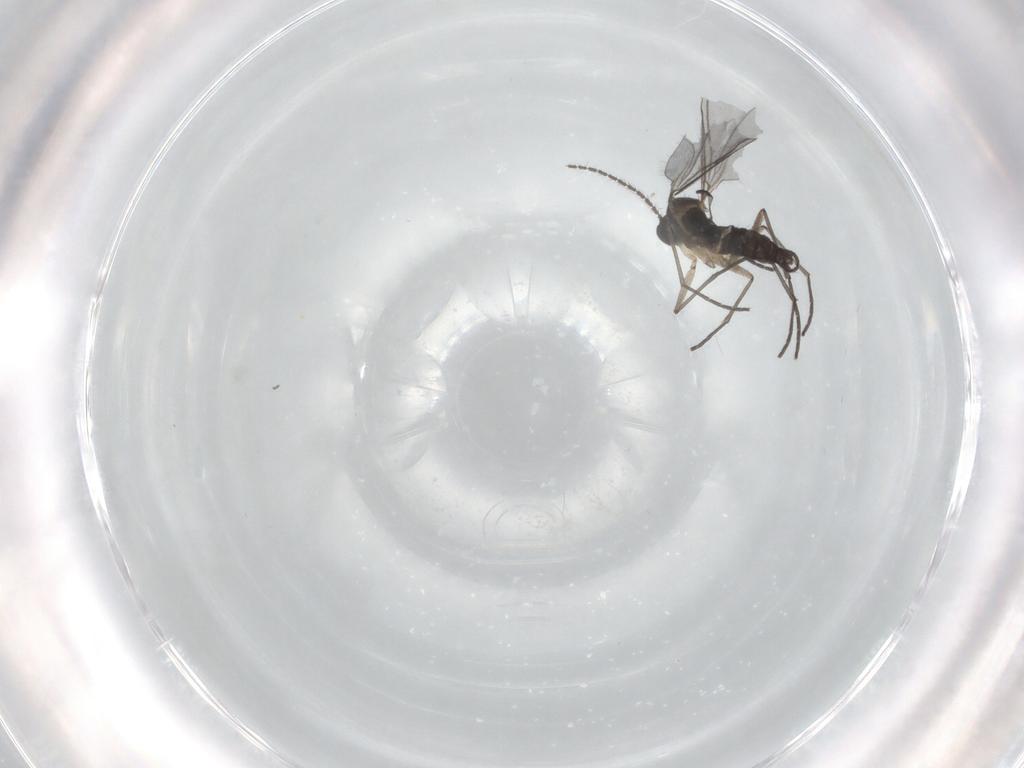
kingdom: Animalia
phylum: Arthropoda
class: Insecta
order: Diptera
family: Sciaridae
